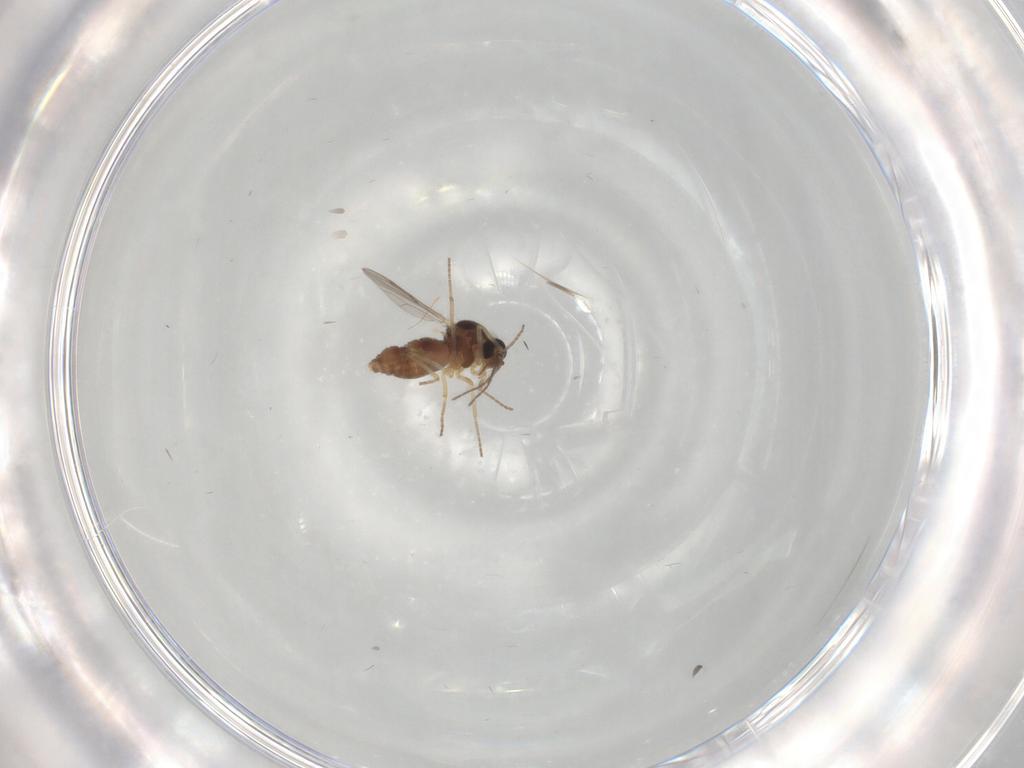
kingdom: Animalia
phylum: Arthropoda
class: Insecta
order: Diptera
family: Ceratopogonidae
